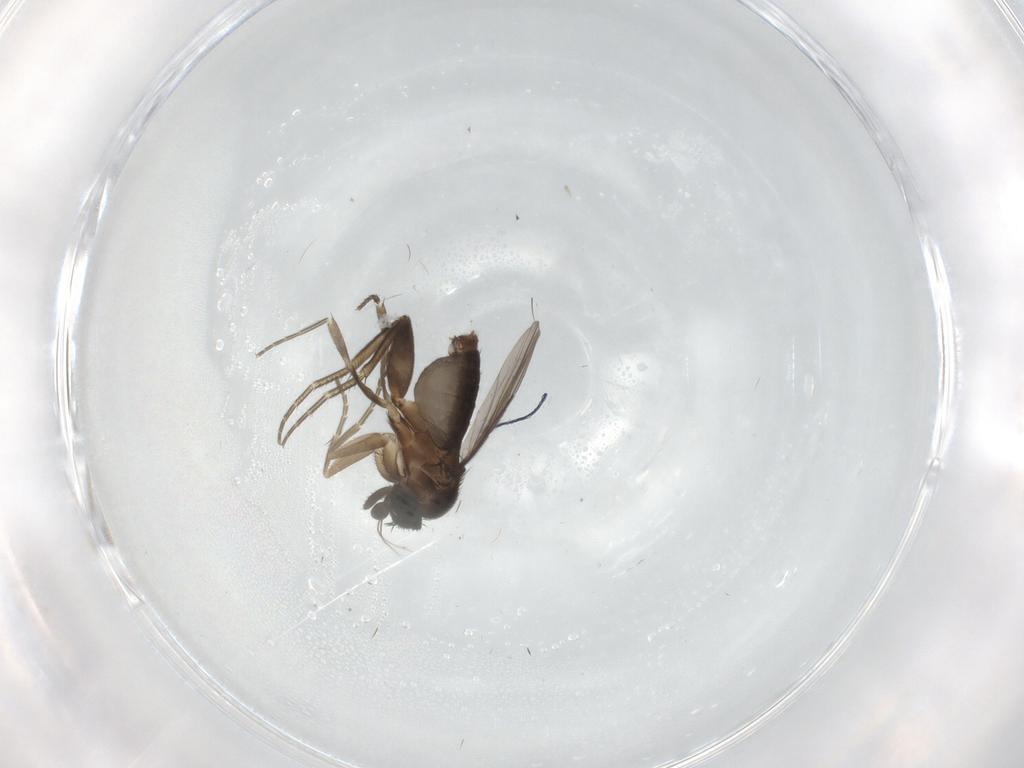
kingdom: Animalia
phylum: Arthropoda
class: Insecta
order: Diptera
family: Phoridae
